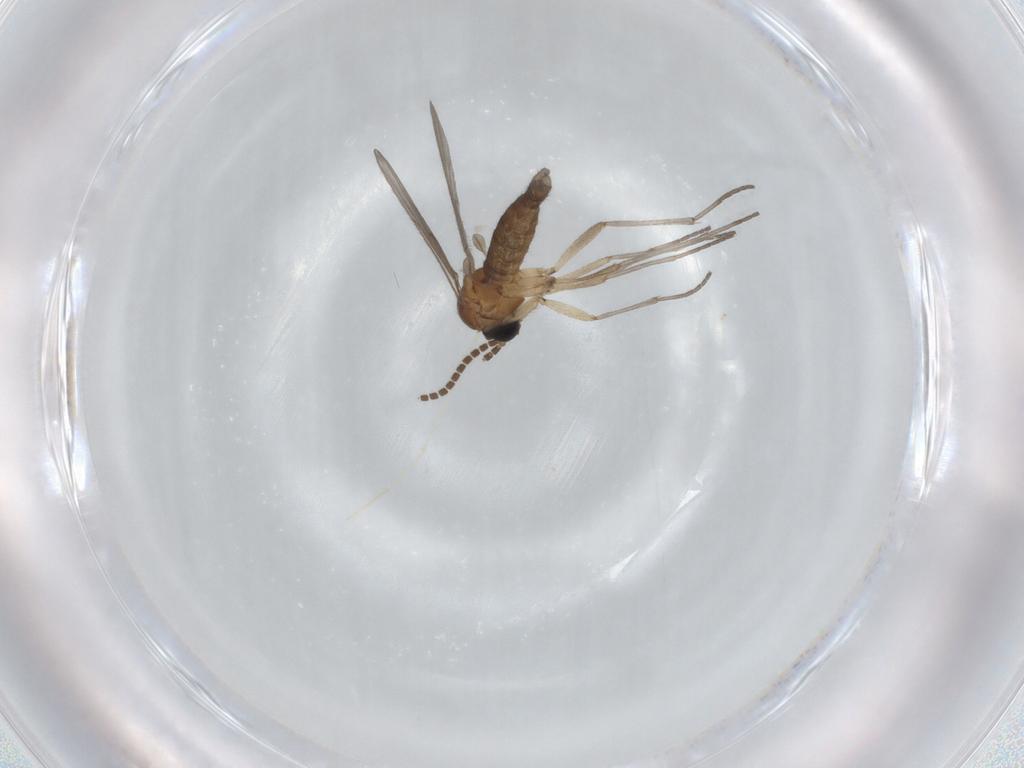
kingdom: Animalia
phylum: Arthropoda
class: Insecta
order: Diptera
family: Sciaridae
